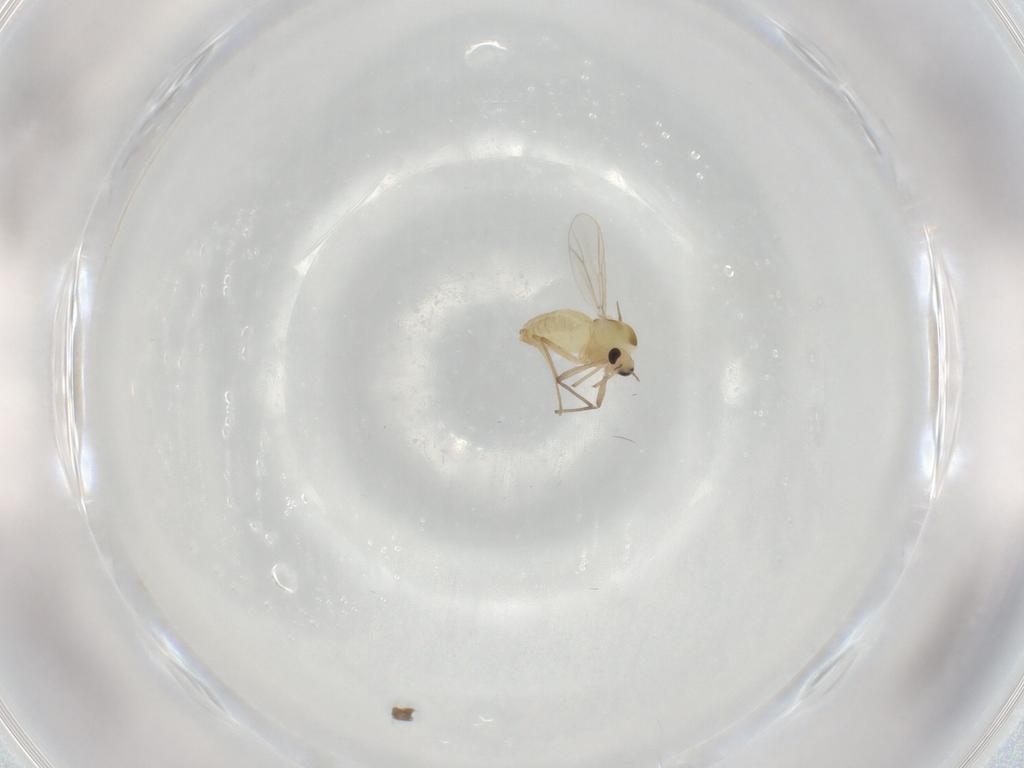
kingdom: Animalia
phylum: Arthropoda
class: Insecta
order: Diptera
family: Chironomidae
